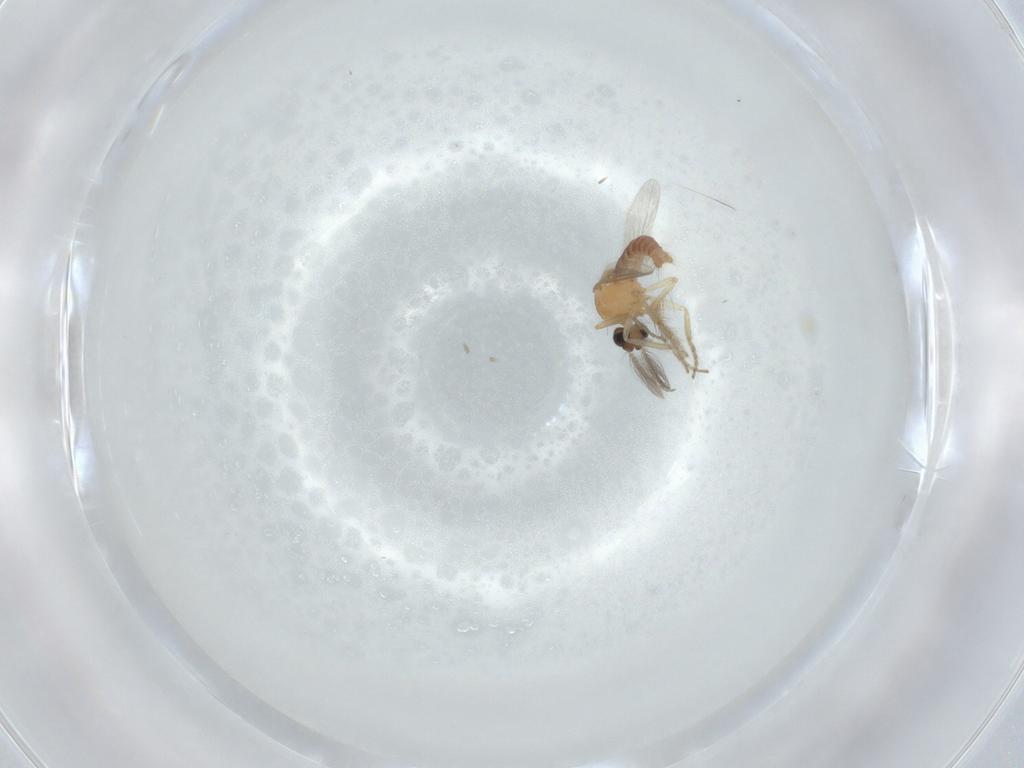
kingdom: Animalia
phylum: Arthropoda
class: Insecta
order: Diptera
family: Ceratopogonidae
